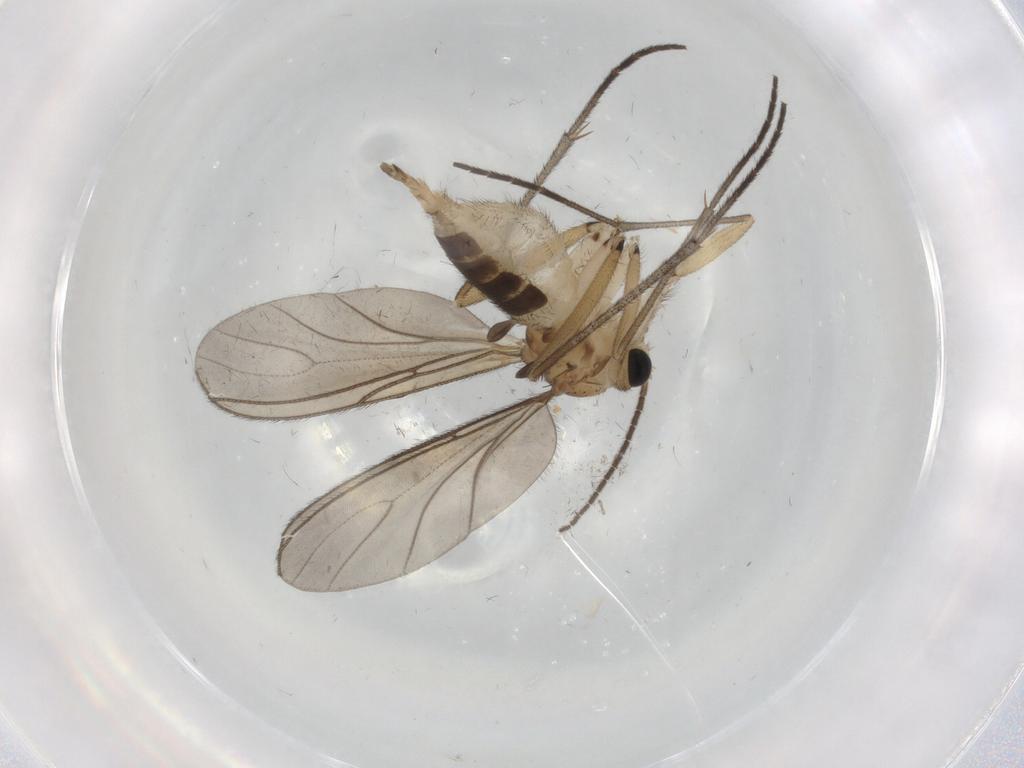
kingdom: Animalia
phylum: Arthropoda
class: Insecta
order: Diptera
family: Sciaridae
